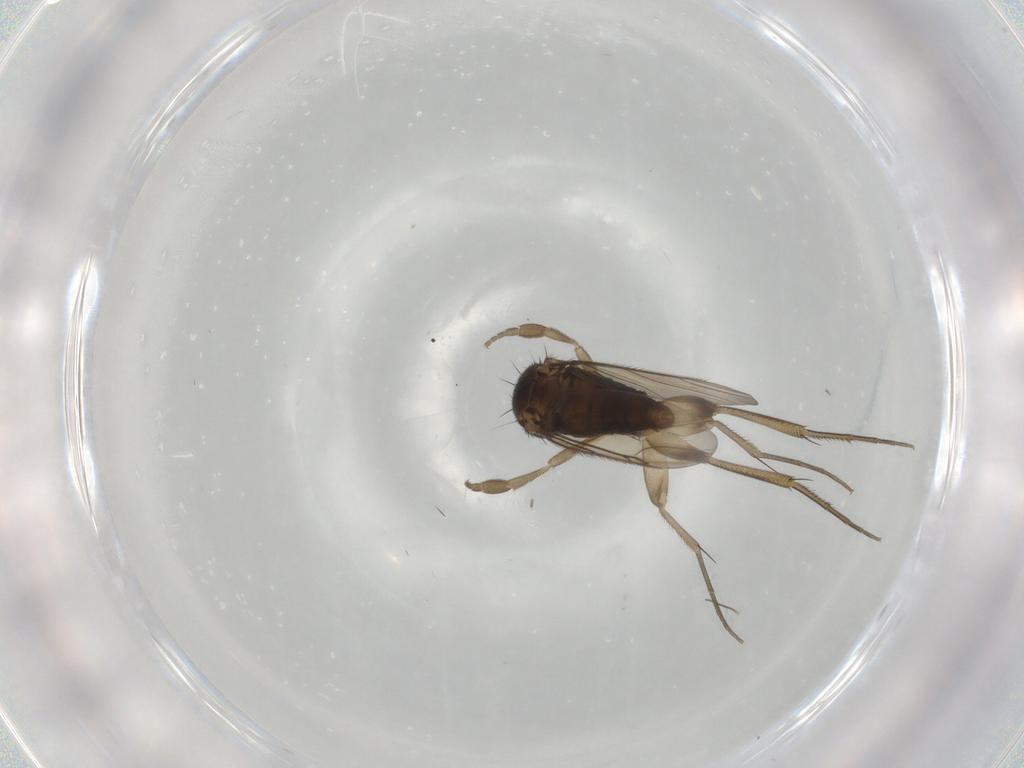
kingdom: Animalia
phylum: Arthropoda
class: Insecta
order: Diptera
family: Phoridae
